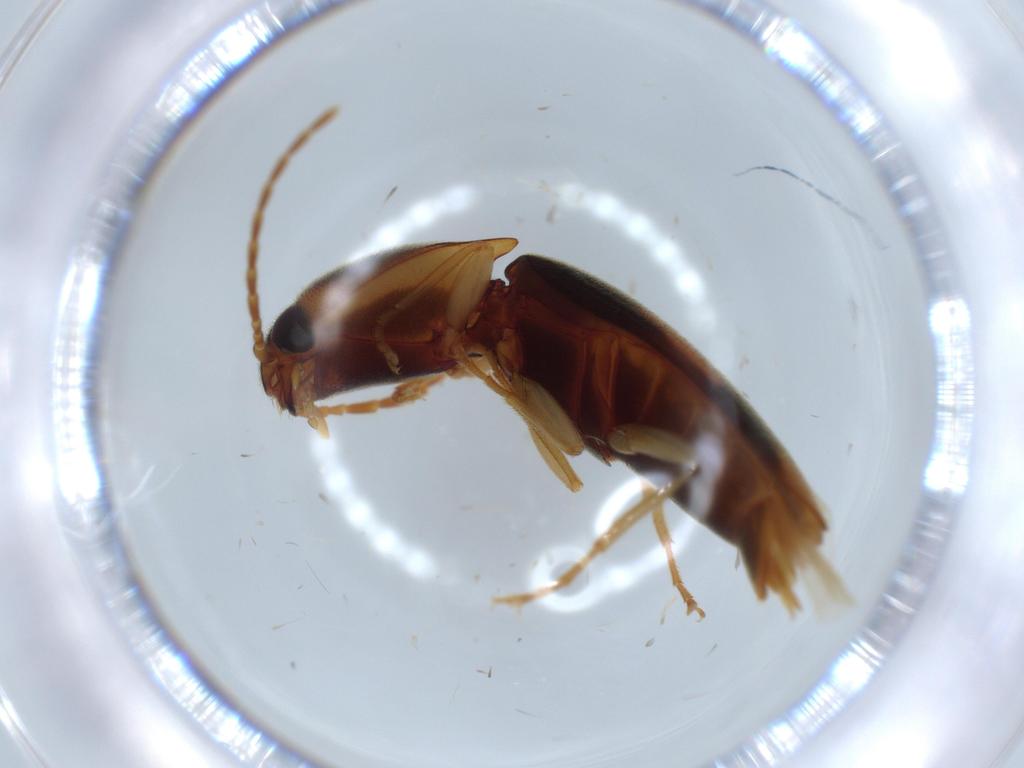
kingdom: Animalia
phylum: Arthropoda
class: Insecta
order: Coleoptera
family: Elateridae
